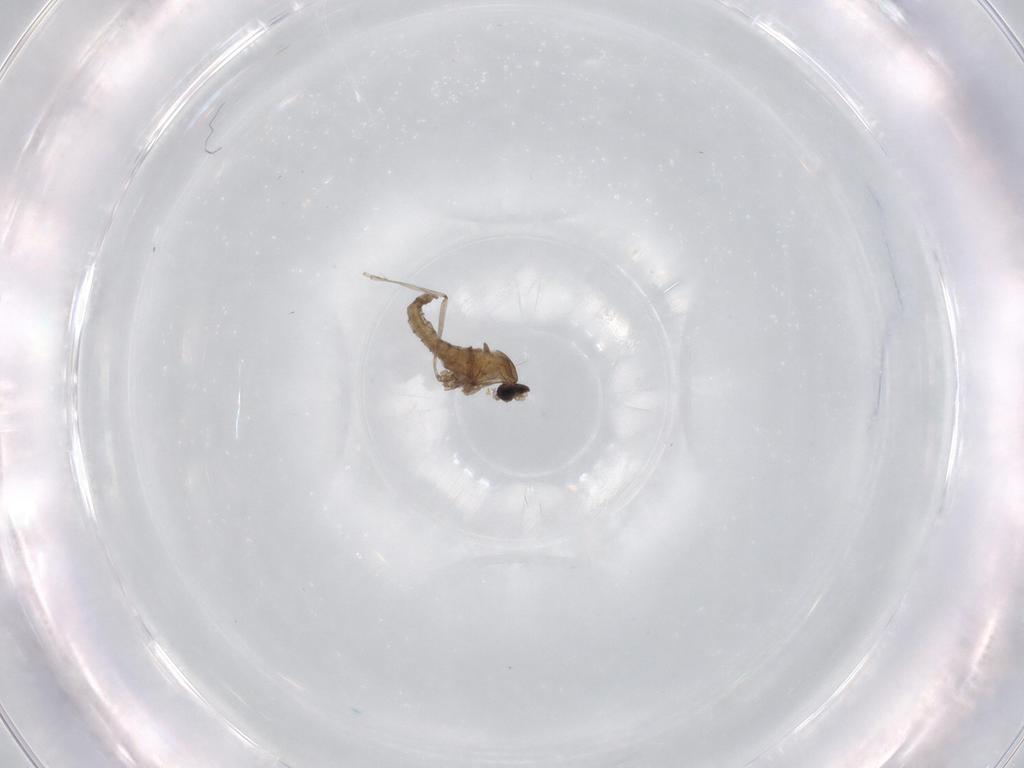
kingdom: Animalia
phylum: Arthropoda
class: Insecta
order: Diptera
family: Cecidomyiidae
